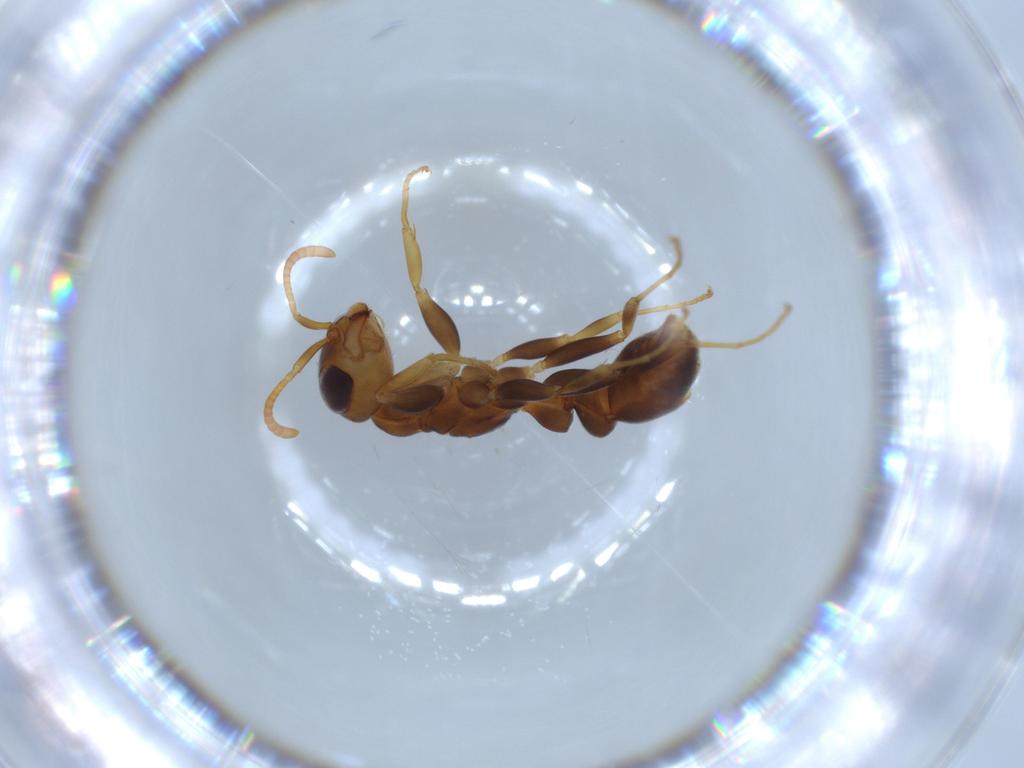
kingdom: Animalia
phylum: Arthropoda
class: Insecta
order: Hymenoptera
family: Formicidae
